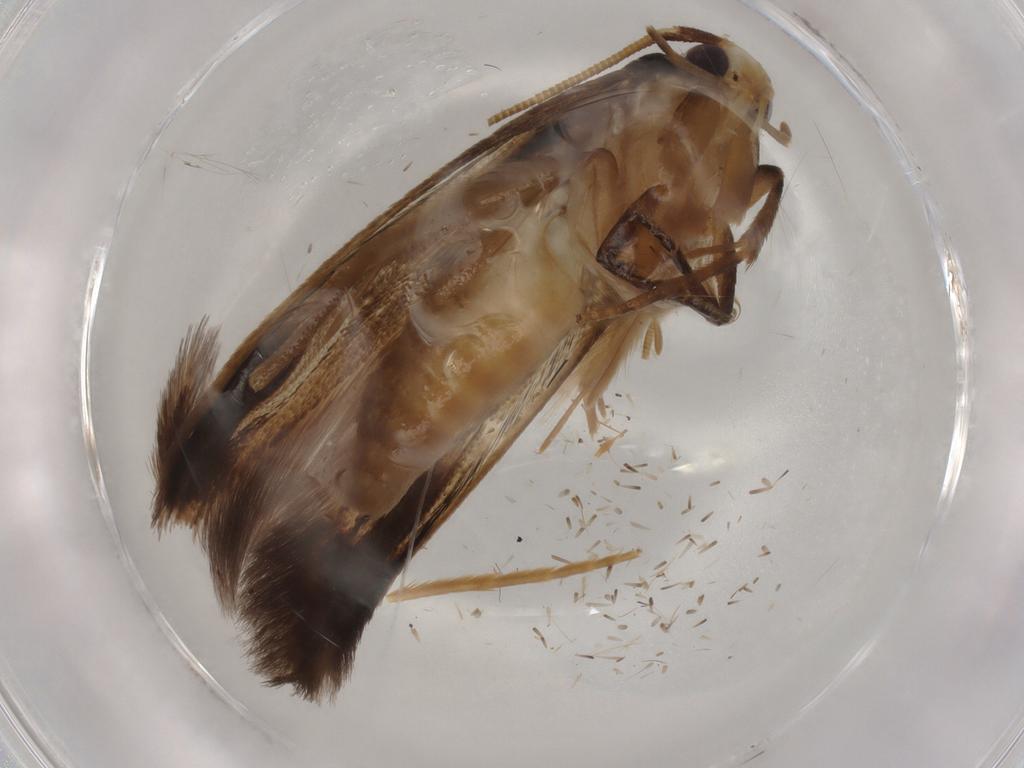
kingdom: Animalia
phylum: Arthropoda
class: Insecta
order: Lepidoptera
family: Tineidae
